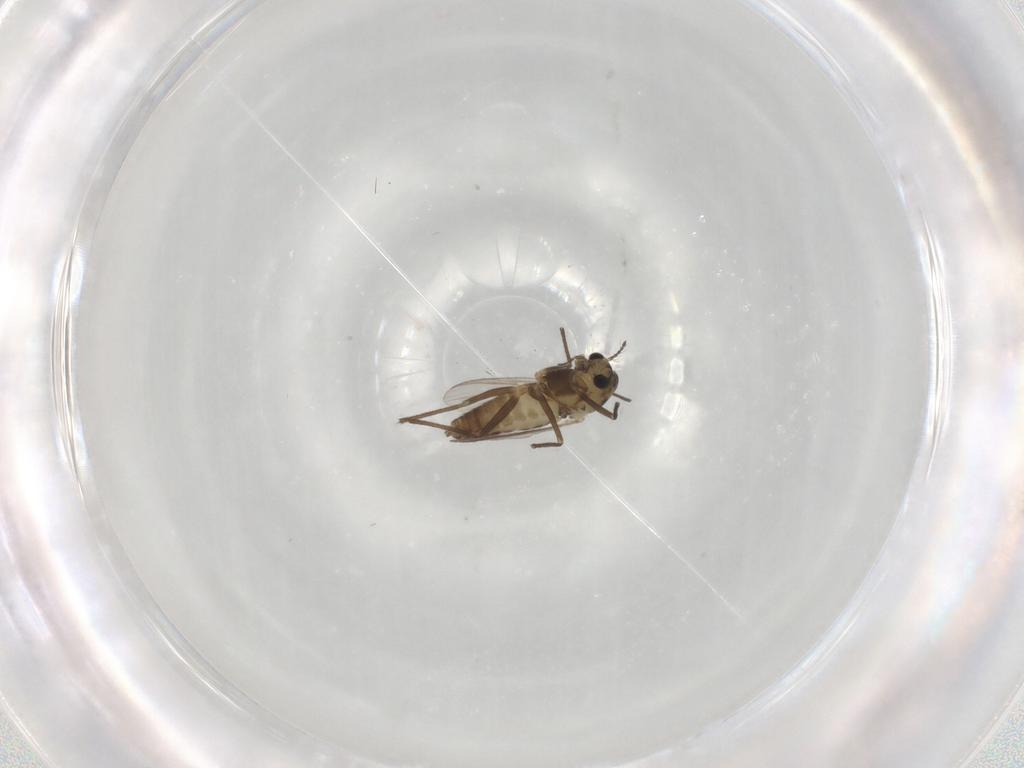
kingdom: Animalia
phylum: Arthropoda
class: Insecta
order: Diptera
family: Chironomidae
